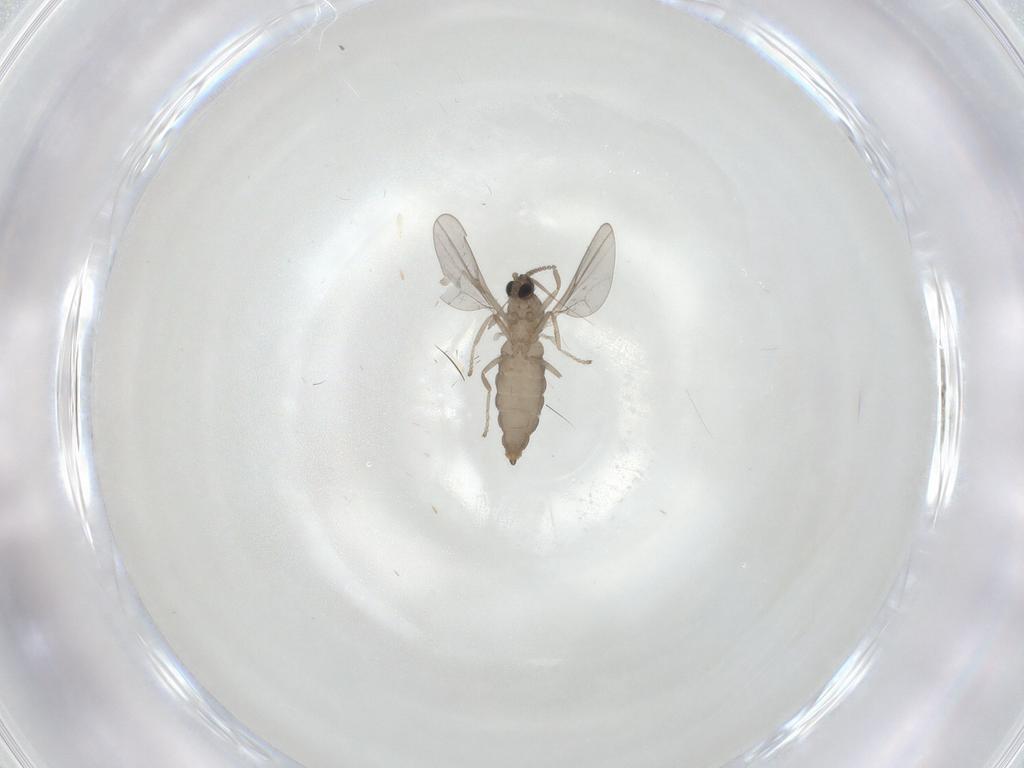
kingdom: Animalia
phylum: Arthropoda
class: Insecta
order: Diptera
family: Cecidomyiidae
